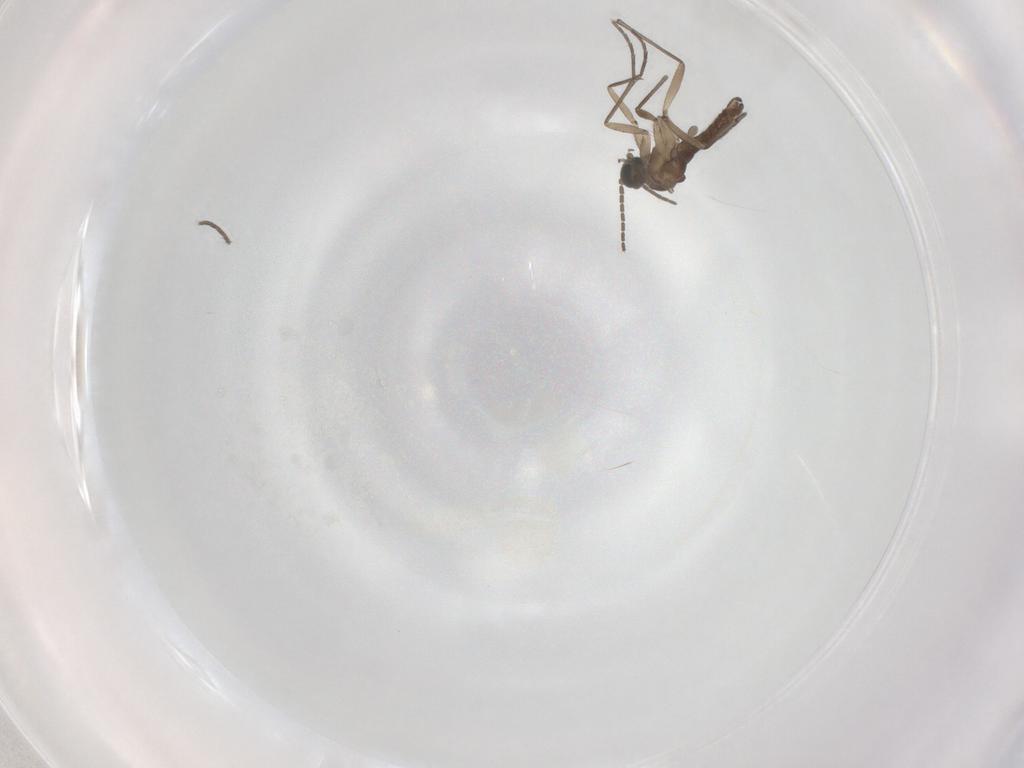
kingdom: Animalia
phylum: Arthropoda
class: Insecta
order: Diptera
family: Sciaridae
